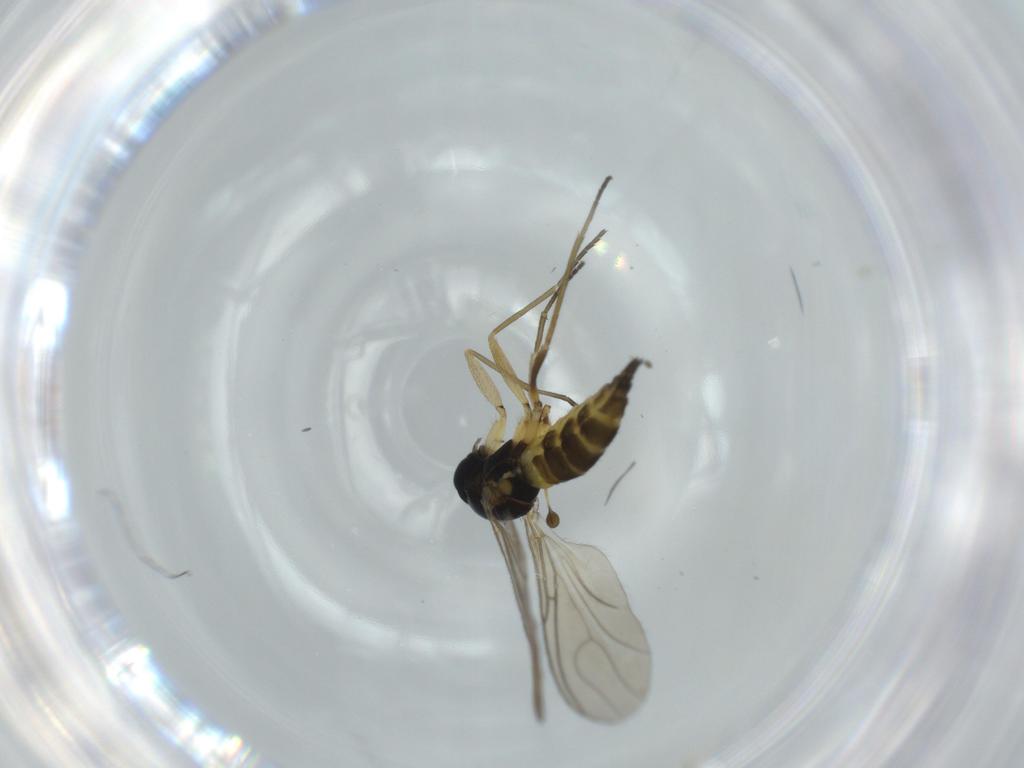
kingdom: Animalia
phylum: Arthropoda
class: Insecta
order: Diptera
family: Sciaridae
